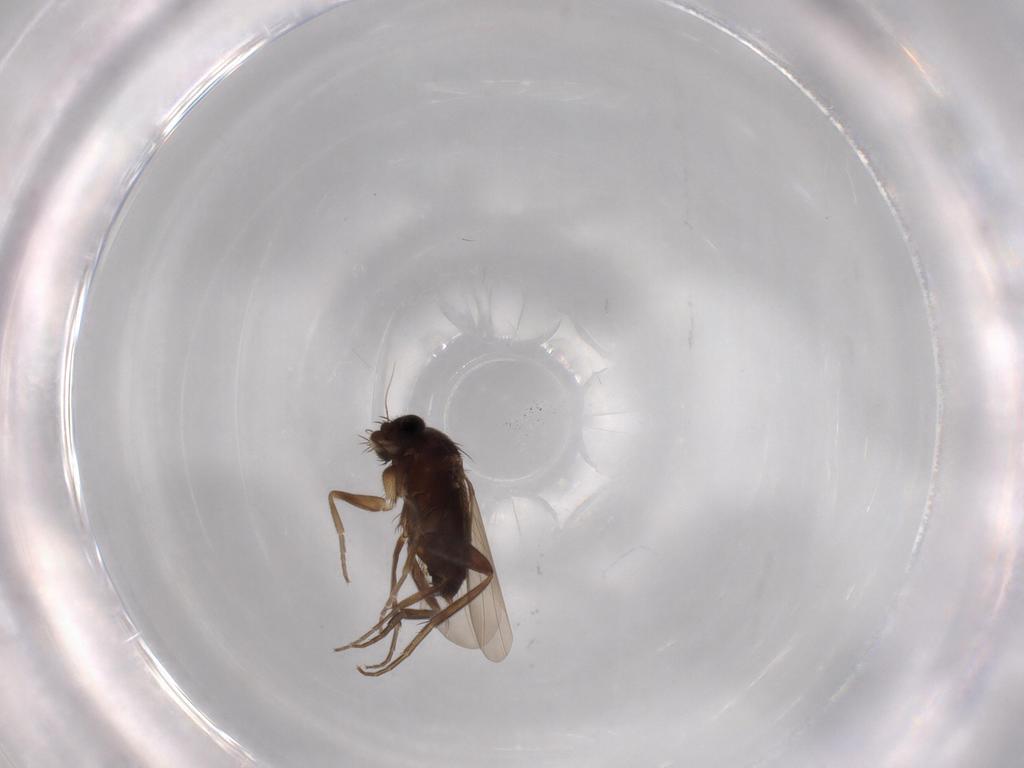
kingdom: Animalia
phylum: Arthropoda
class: Insecta
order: Diptera
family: Phoridae
